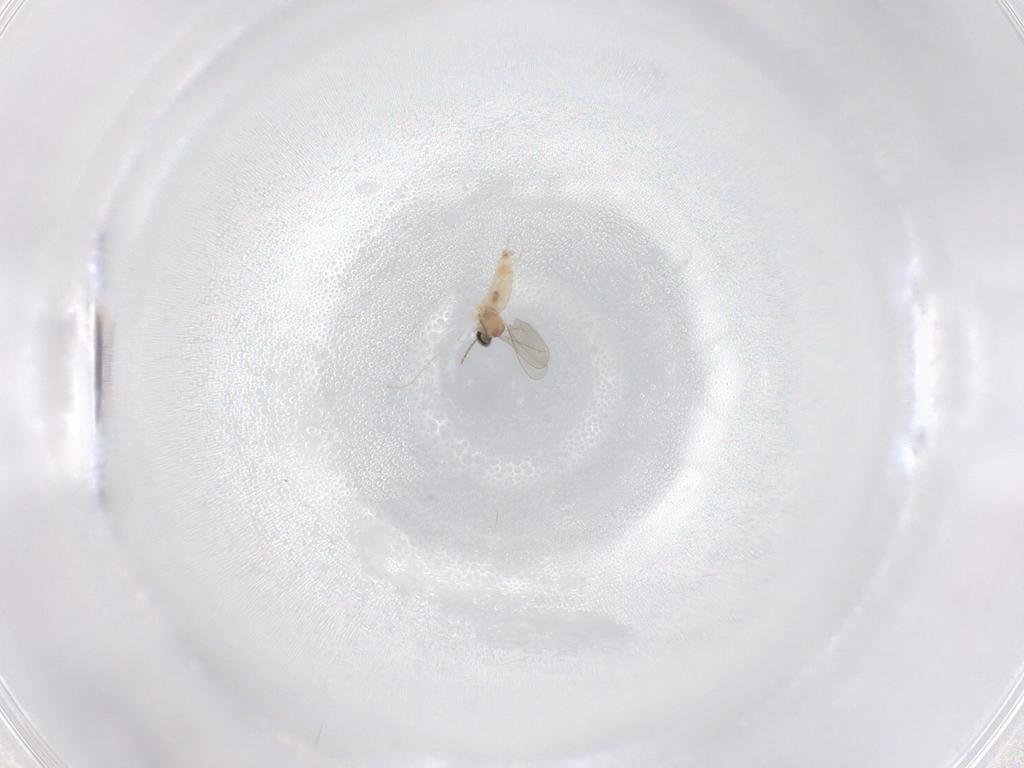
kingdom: Animalia
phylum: Arthropoda
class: Insecta
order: Diptera
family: Cecidomyiidae
